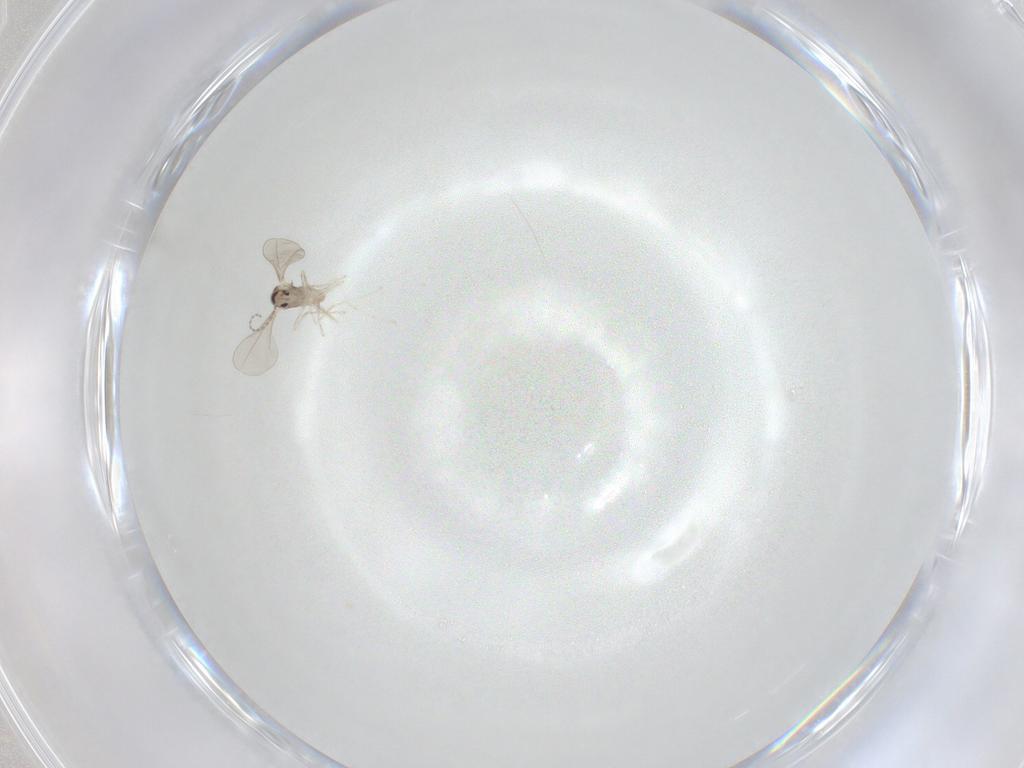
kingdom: Animalia
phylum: Arthropoda
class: Insecta
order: Diptera
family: Cecidomyiidae
